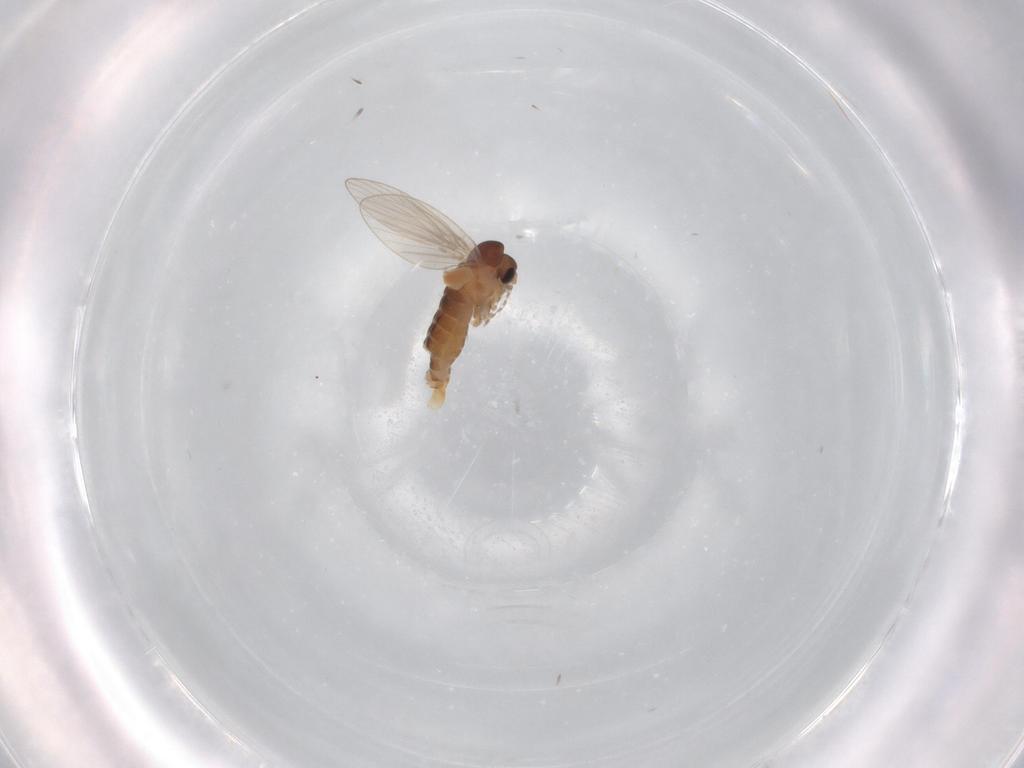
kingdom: Animalia
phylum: Arthropoda
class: Insecta
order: Diptera
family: Psychodidae
